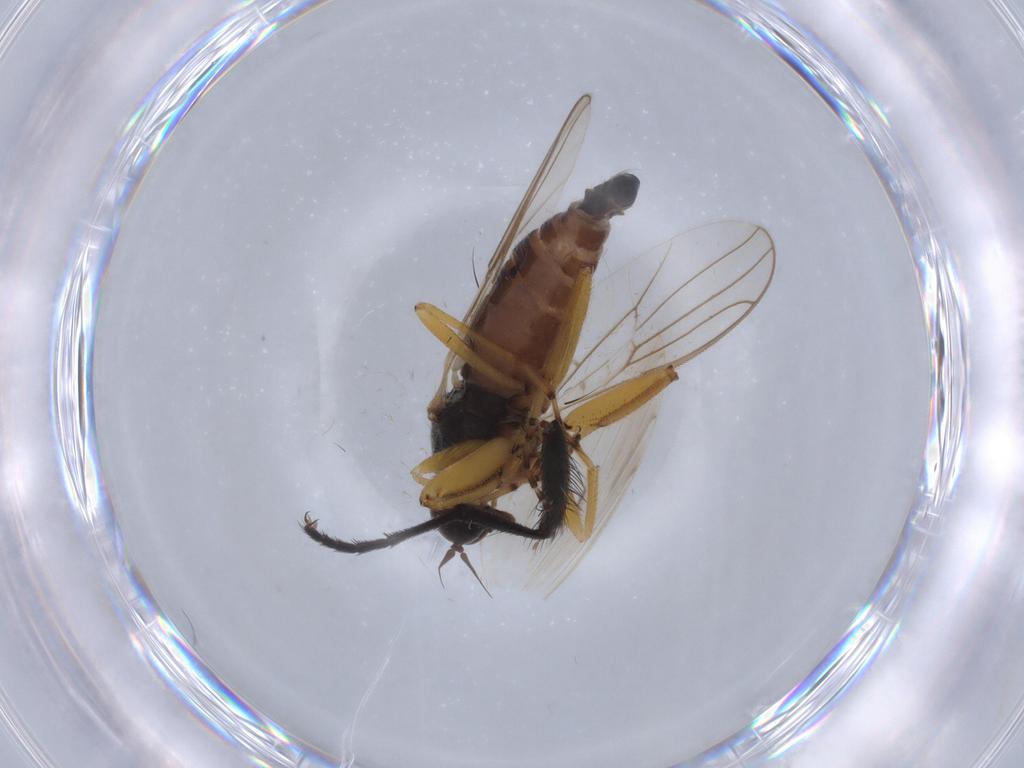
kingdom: Animalia
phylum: Arthropoda
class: Insecta
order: Diptera
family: Hybotidae
